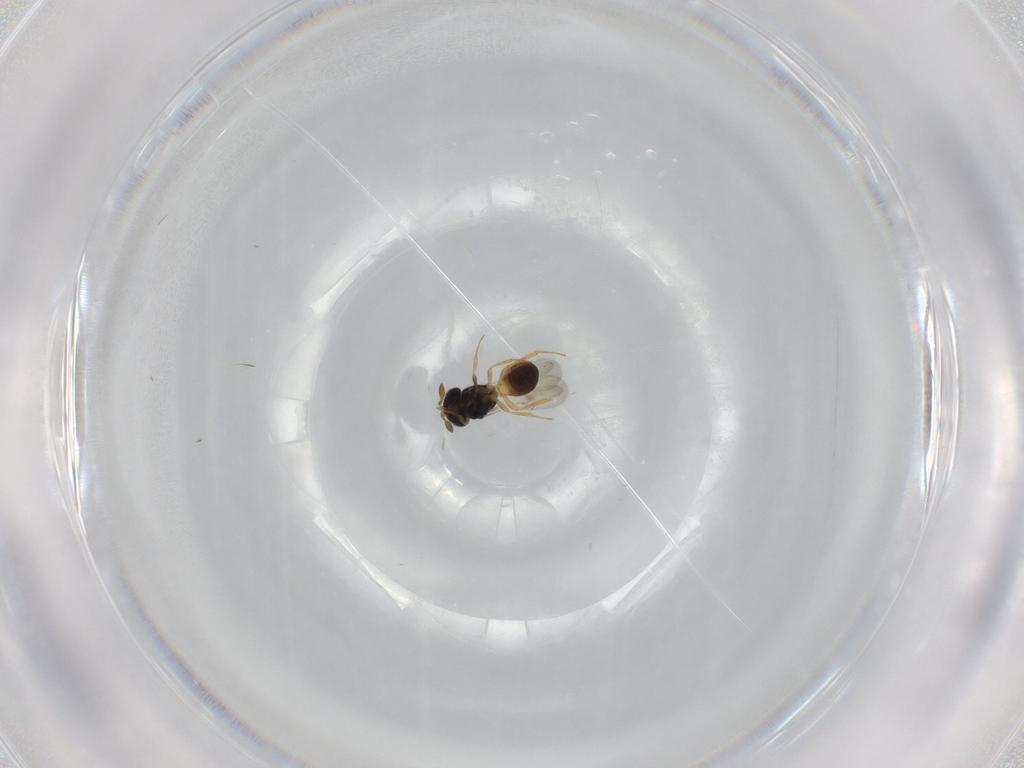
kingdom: Animalia
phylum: Arthropoda
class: Insecta
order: Hymenoptera
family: Scelionidae
